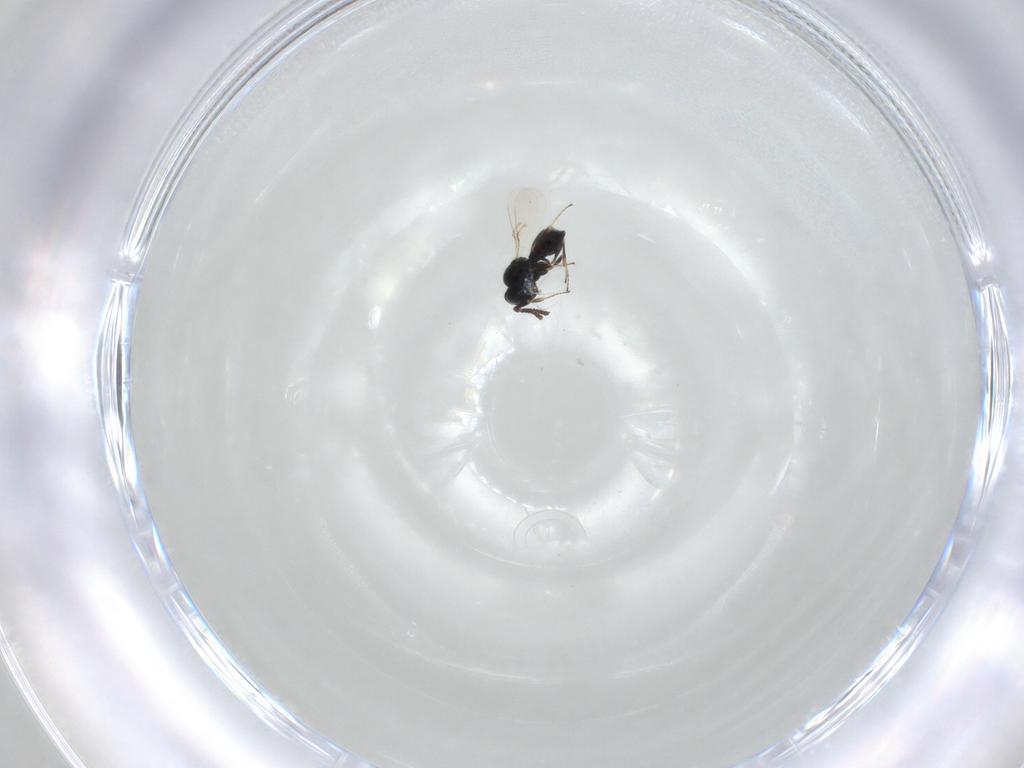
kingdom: Animalia
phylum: Arthropoda
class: Insecta
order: Hymenoptera
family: Scelionidae
